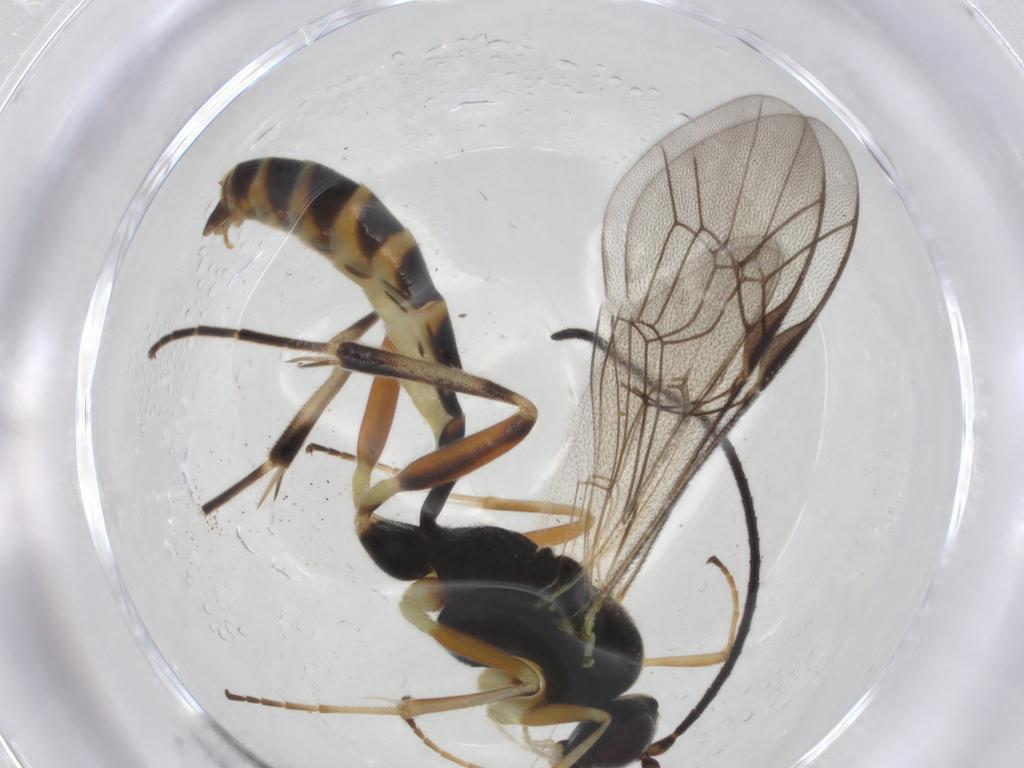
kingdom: Animalia
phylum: Arthropoda
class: Insecta
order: Hymenoptera
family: Ichneumonidae
